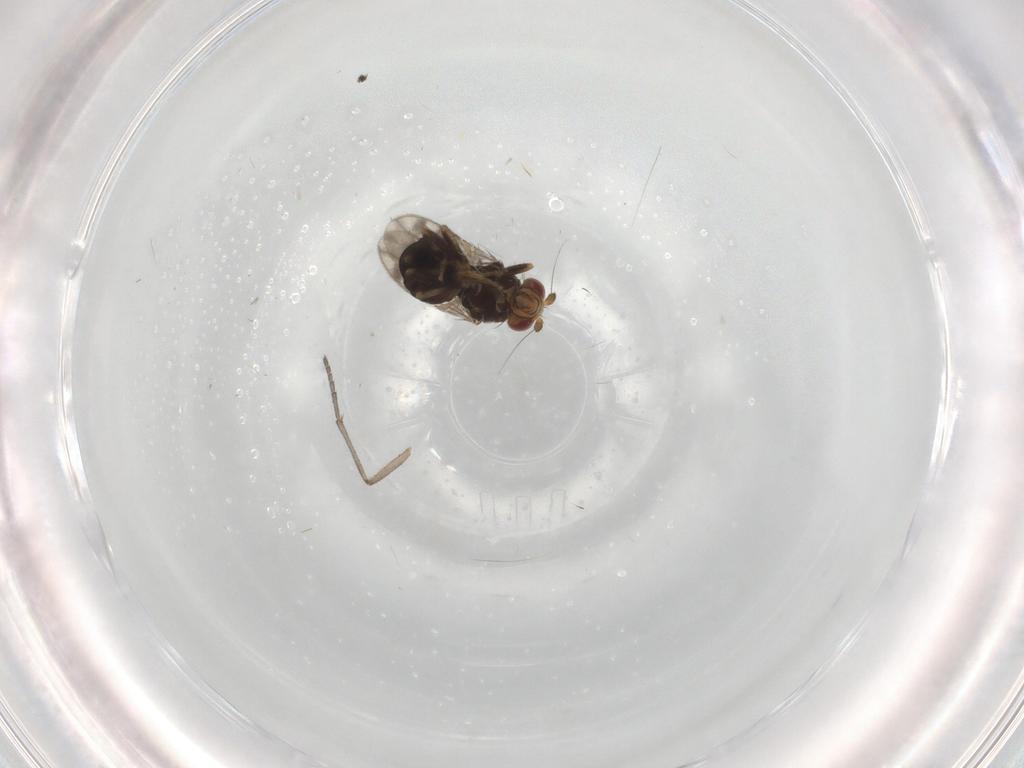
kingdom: Animalia
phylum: Arthropoda
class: Insecta
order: Diptera
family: Sphaeroceridae
